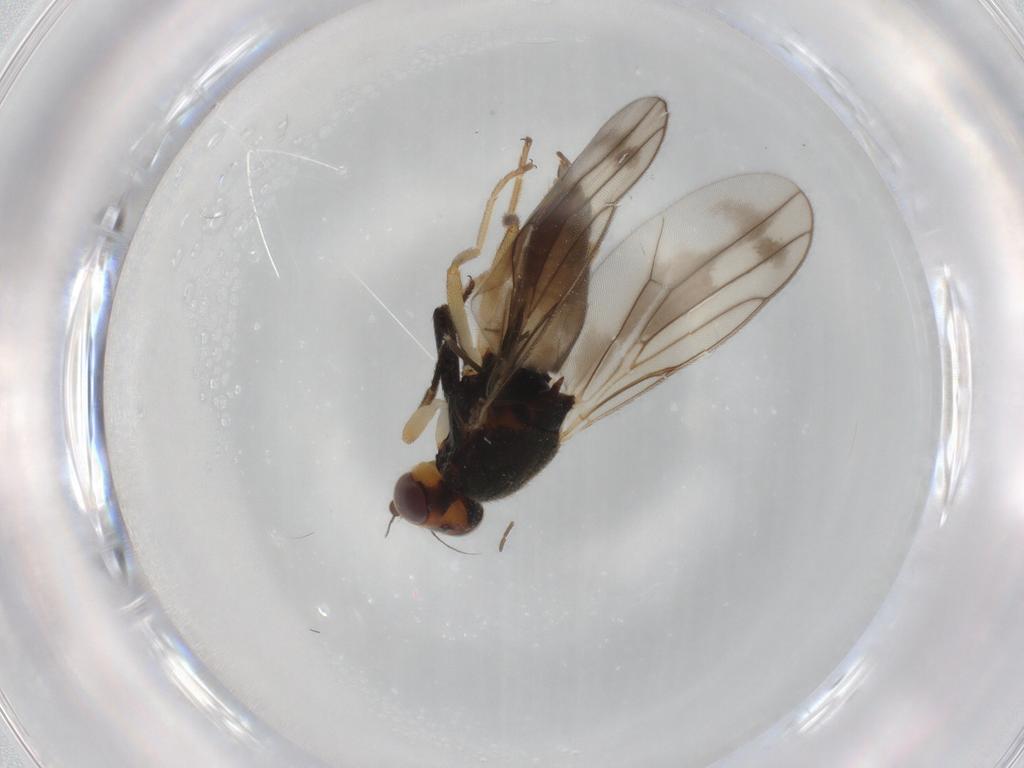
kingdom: Animalia
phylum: Arthropoda
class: Insecta
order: Diptera
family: Chloropidae
